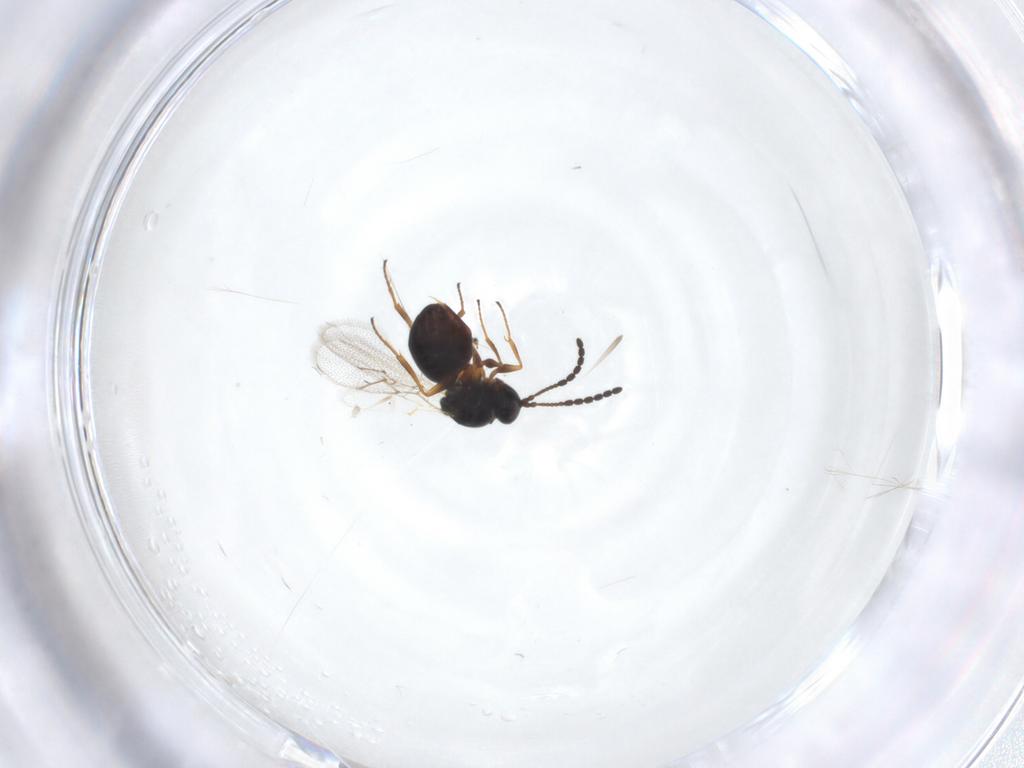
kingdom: Animalia
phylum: Arthropoda
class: Insecta
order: Hymenoptera
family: Figitidae
